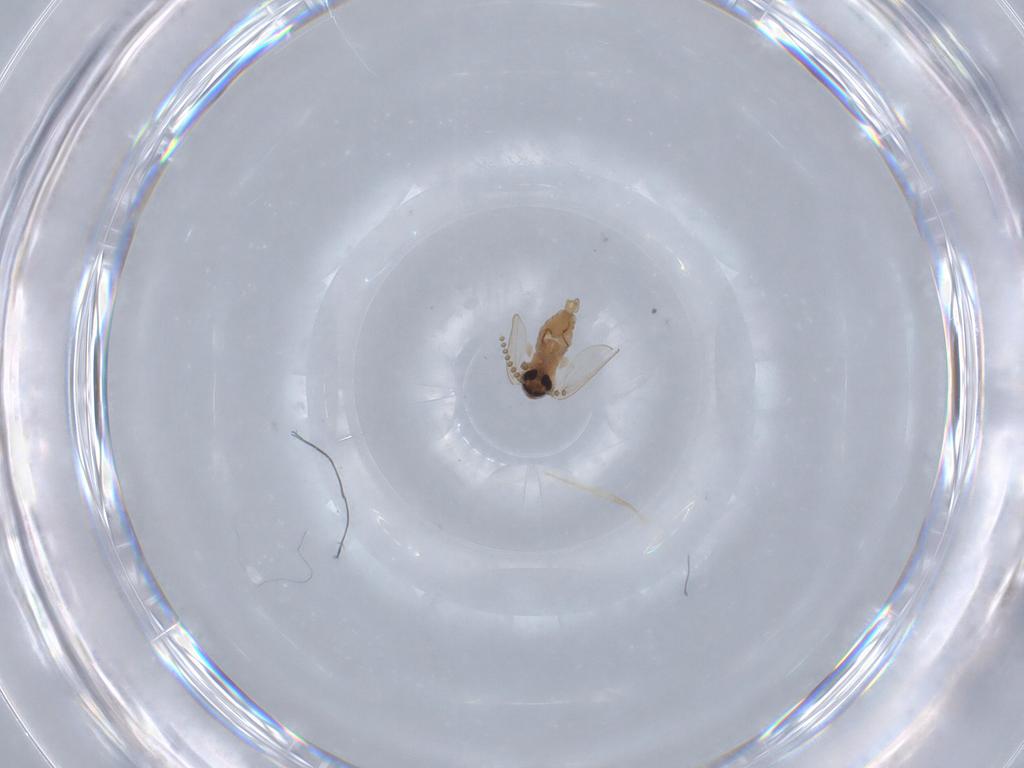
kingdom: Animalia
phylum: Arthropoda
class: Insecta
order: Diptera
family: Psychodidae
